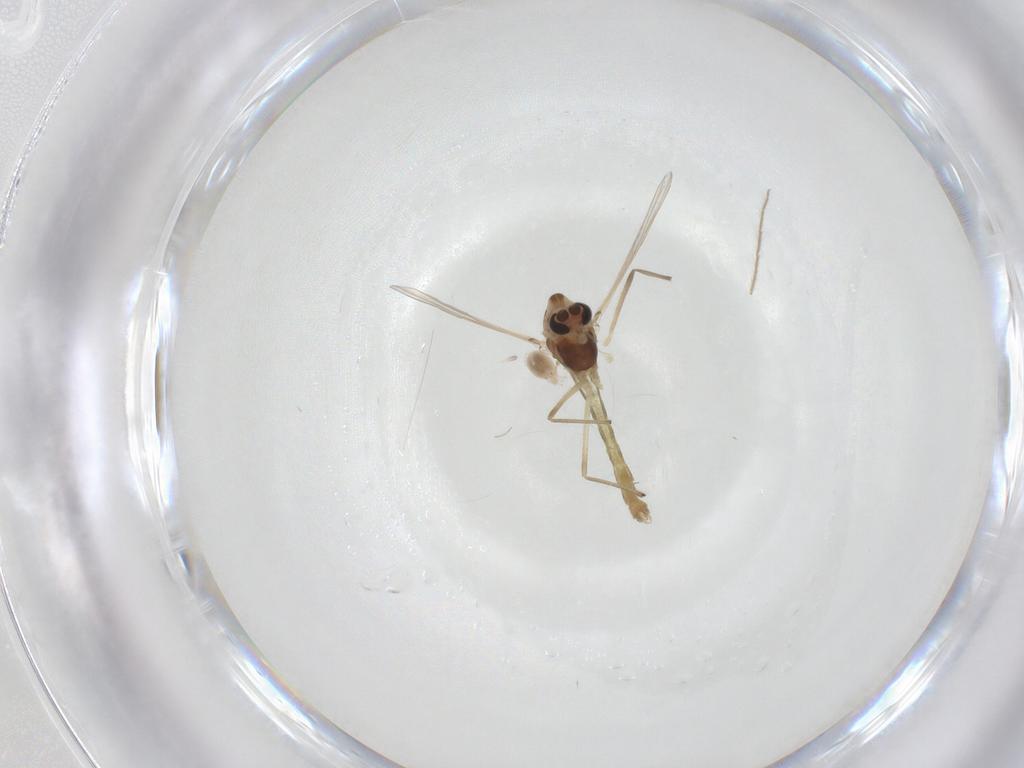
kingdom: Animalia
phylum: Arthropoda
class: Insecta
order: Diptera
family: Chironomidae
